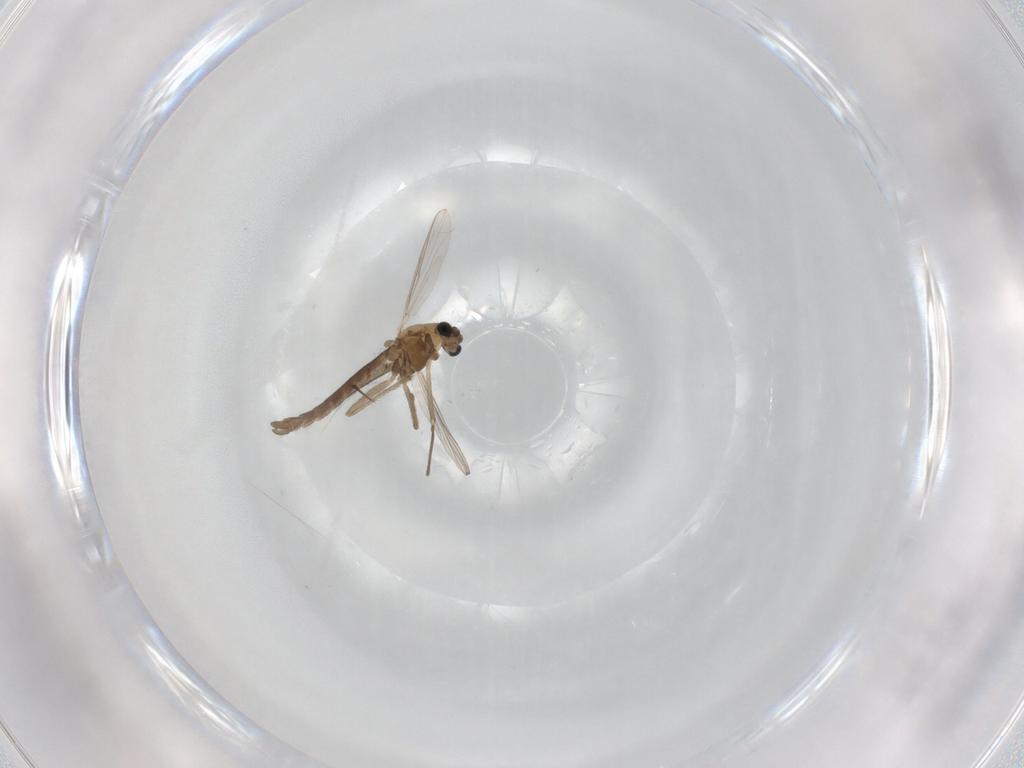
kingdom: Animalia
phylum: Arthropoda
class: Insecta
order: Diptera
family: Chironomidae
